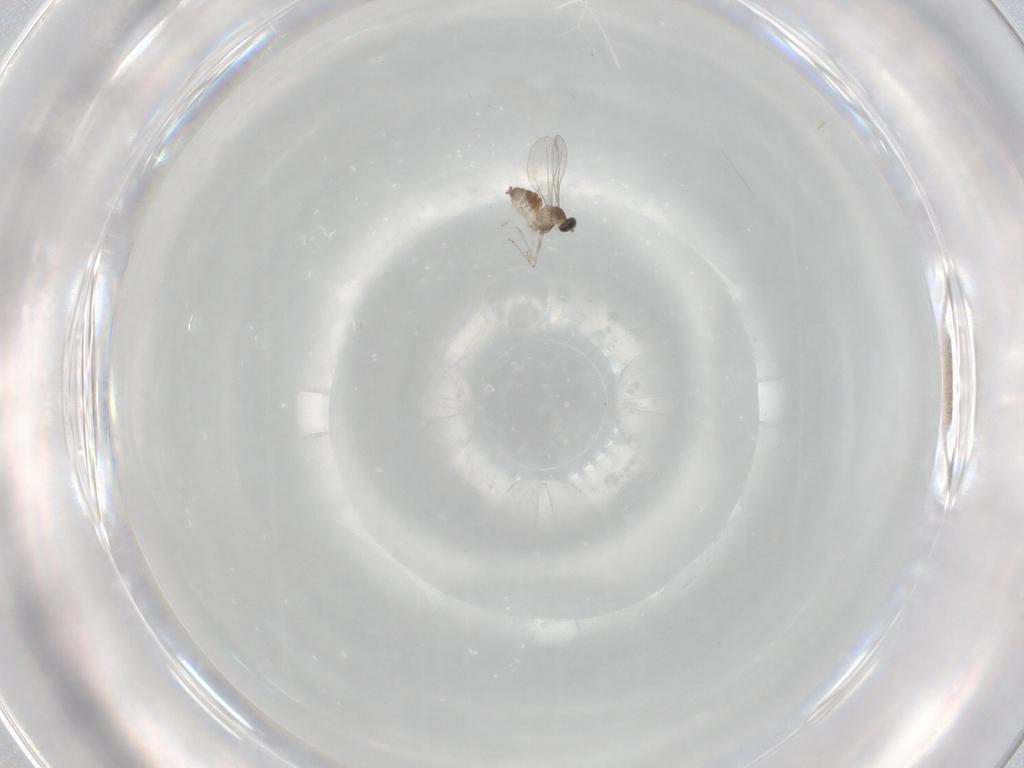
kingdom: Animalia
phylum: Arthropoda
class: Insecta
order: Diptera
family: Cecidomyiidae
